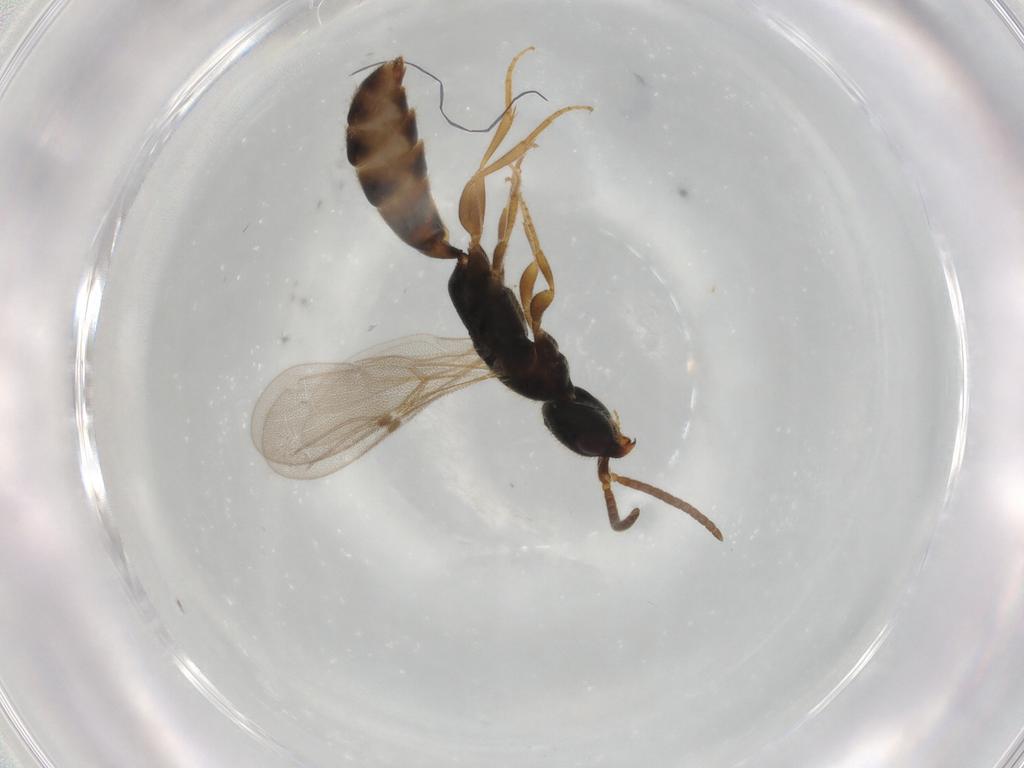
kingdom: Animalia
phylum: Arthropoda
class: Insecta
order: Hymenoptera
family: Bethylidae
